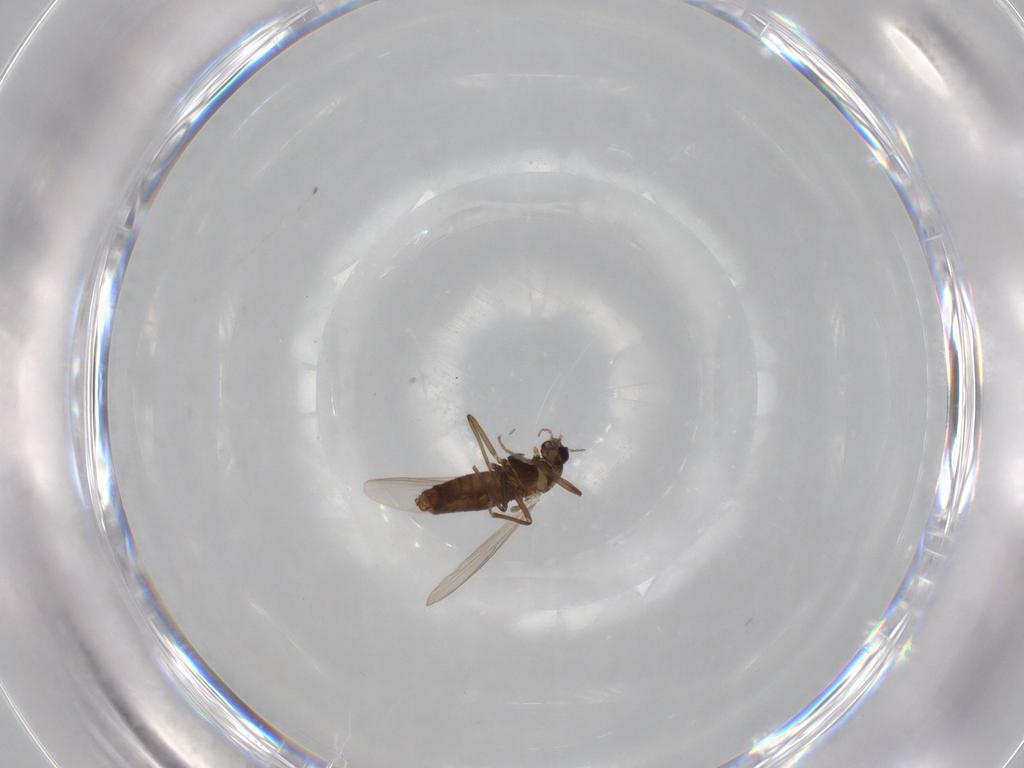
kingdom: Animalia
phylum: Arthropoda
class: Insecta
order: Diptera
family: Chironomidae
